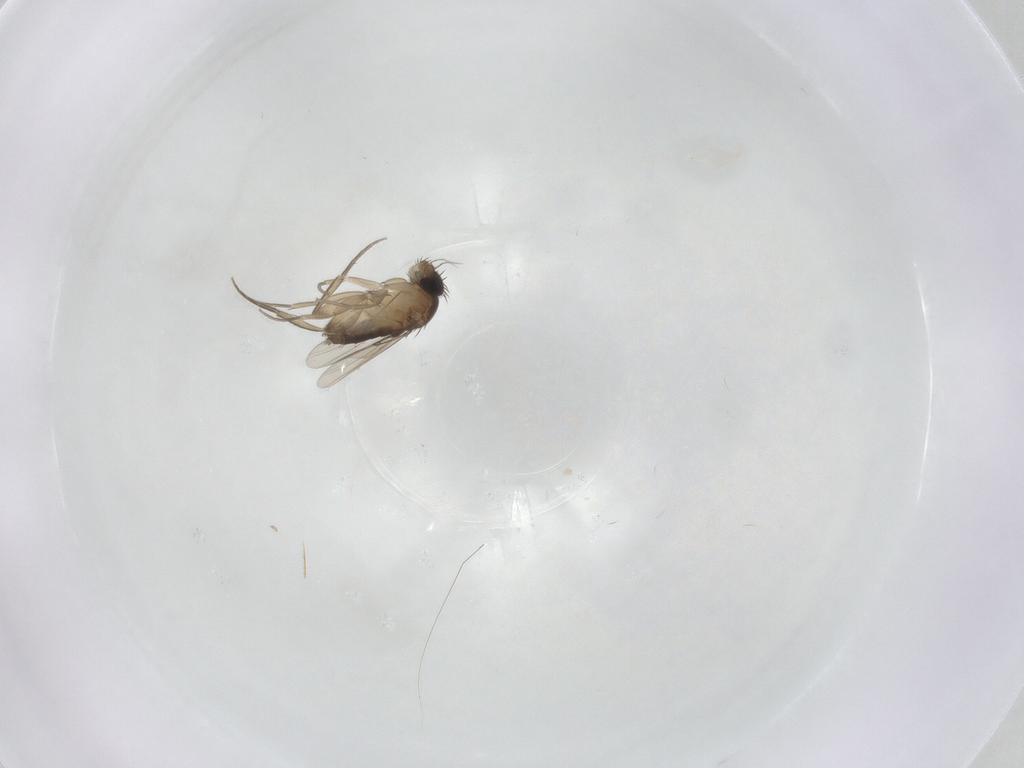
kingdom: Animalia
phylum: Arthropoda
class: Insecta
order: Diptera
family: Phoridae
